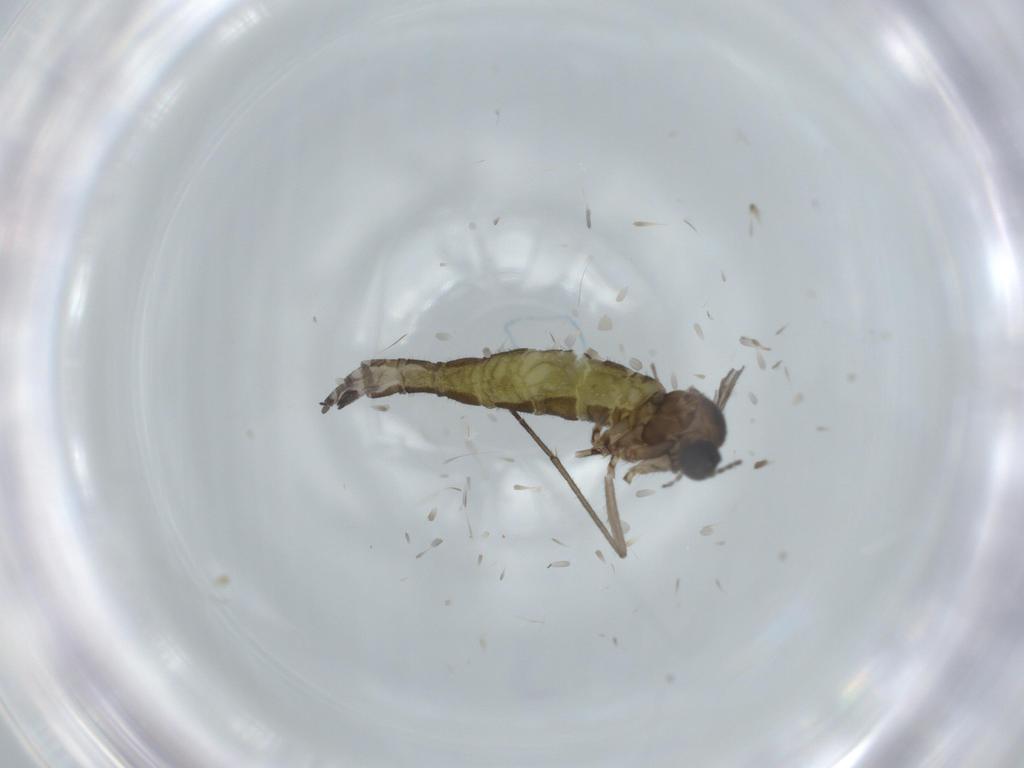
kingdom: Animalia
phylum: Arthropoda
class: Insecta
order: Diptera
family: Sciaridae
